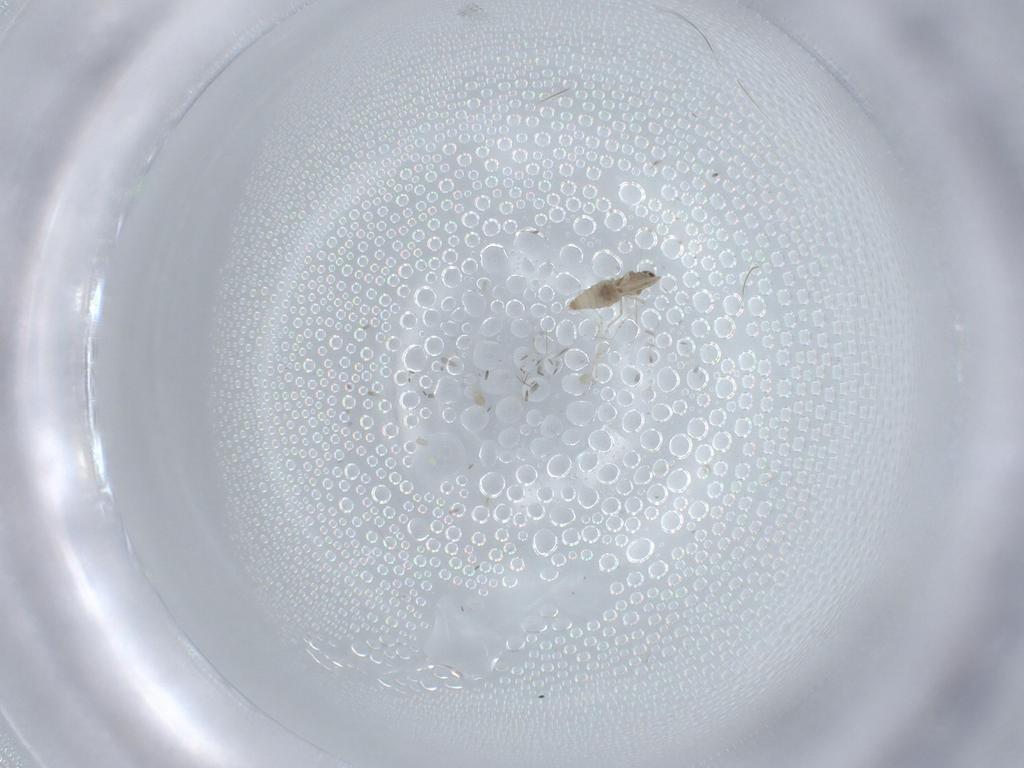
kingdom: Animalia
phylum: Arthropoda
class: Insecta
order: Diptera
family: Cecidomyiidae
